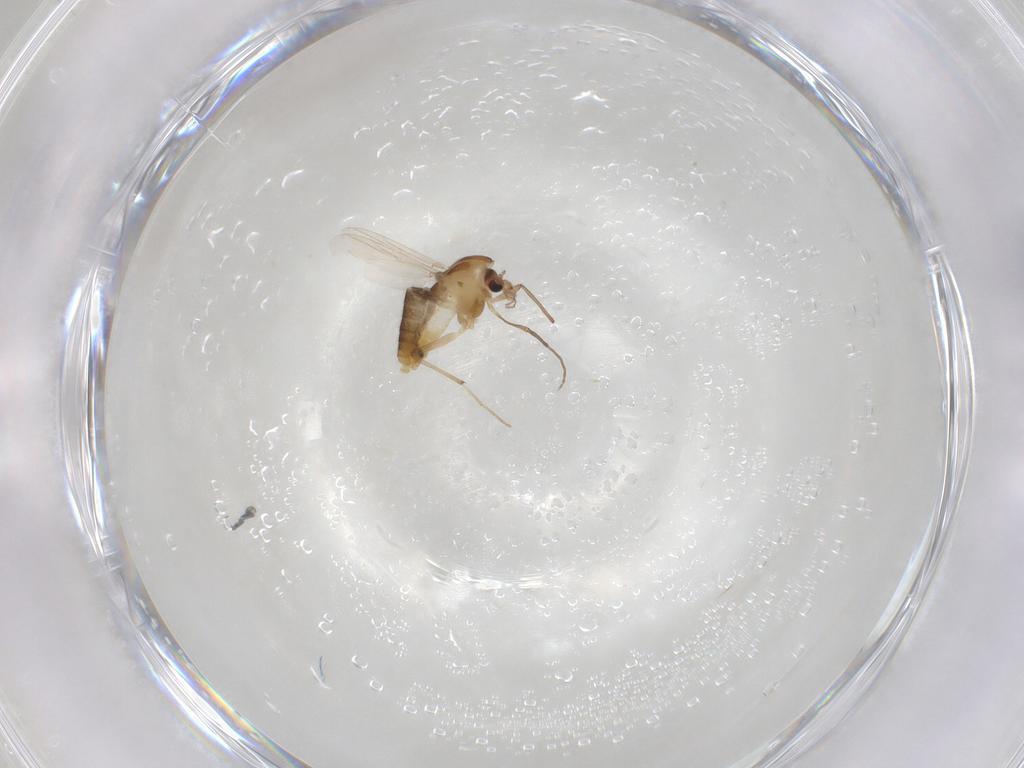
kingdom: Animalia
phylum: Arthropoda
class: Insecta
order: Diptera
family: Chironomidae
